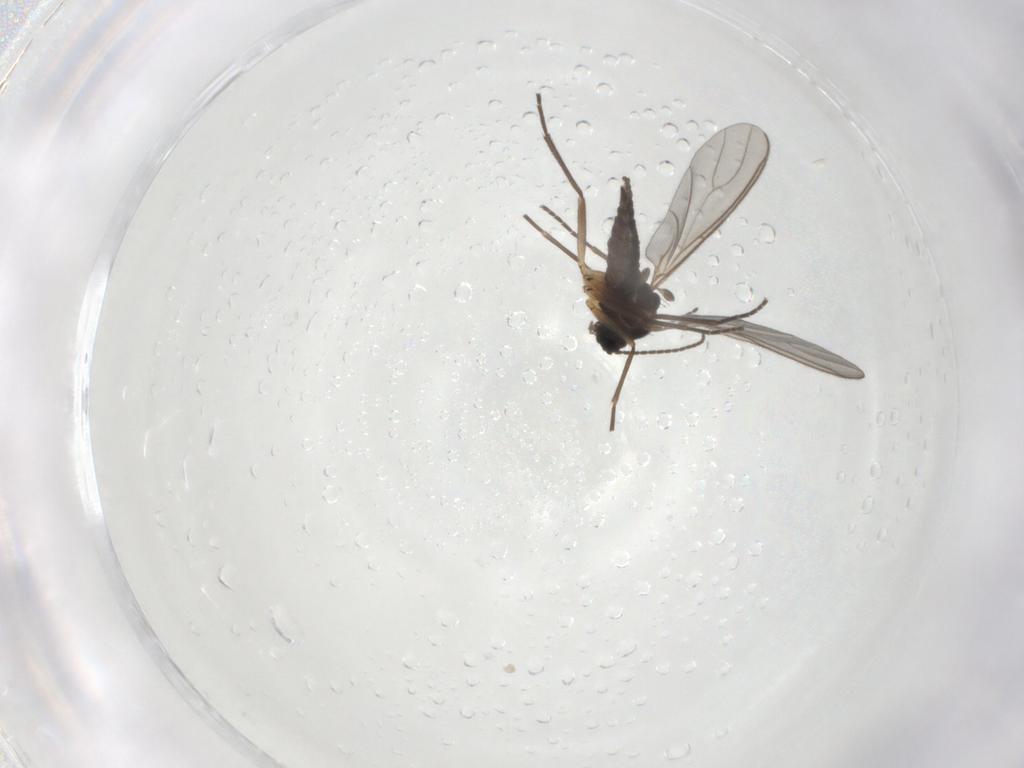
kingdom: Animalia
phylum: Arthropoda
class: Insecta
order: Diptera
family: Sciaridae
